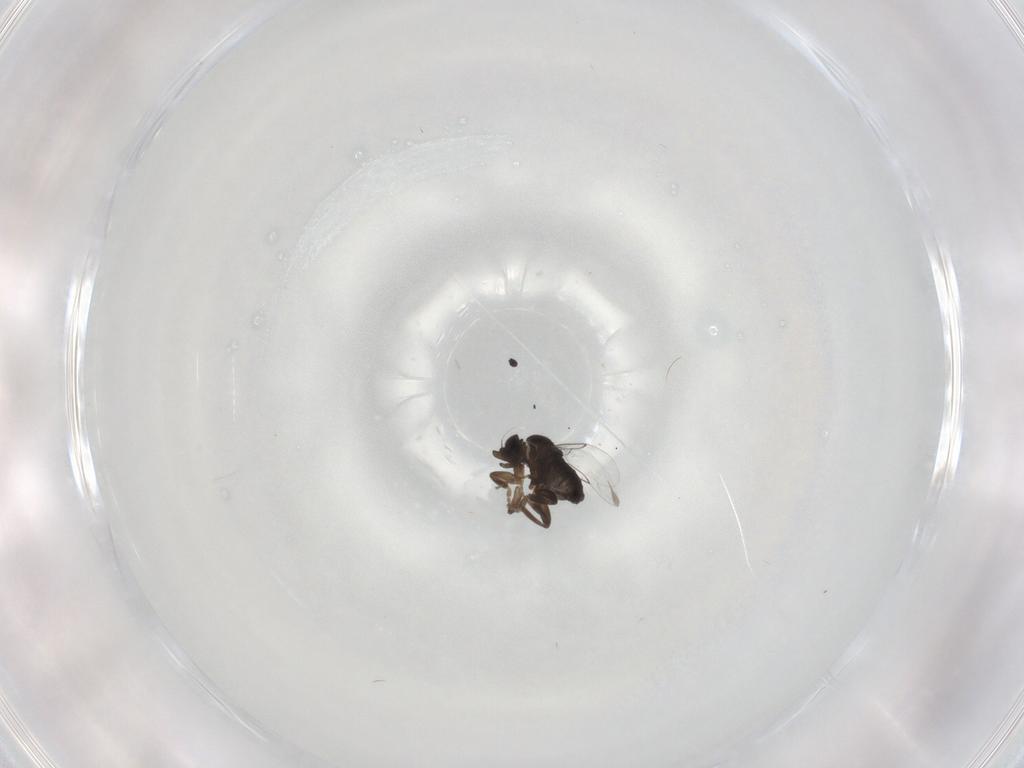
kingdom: Animalia
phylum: Arthropoda
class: Insecta
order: Diptera
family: Phoridae
